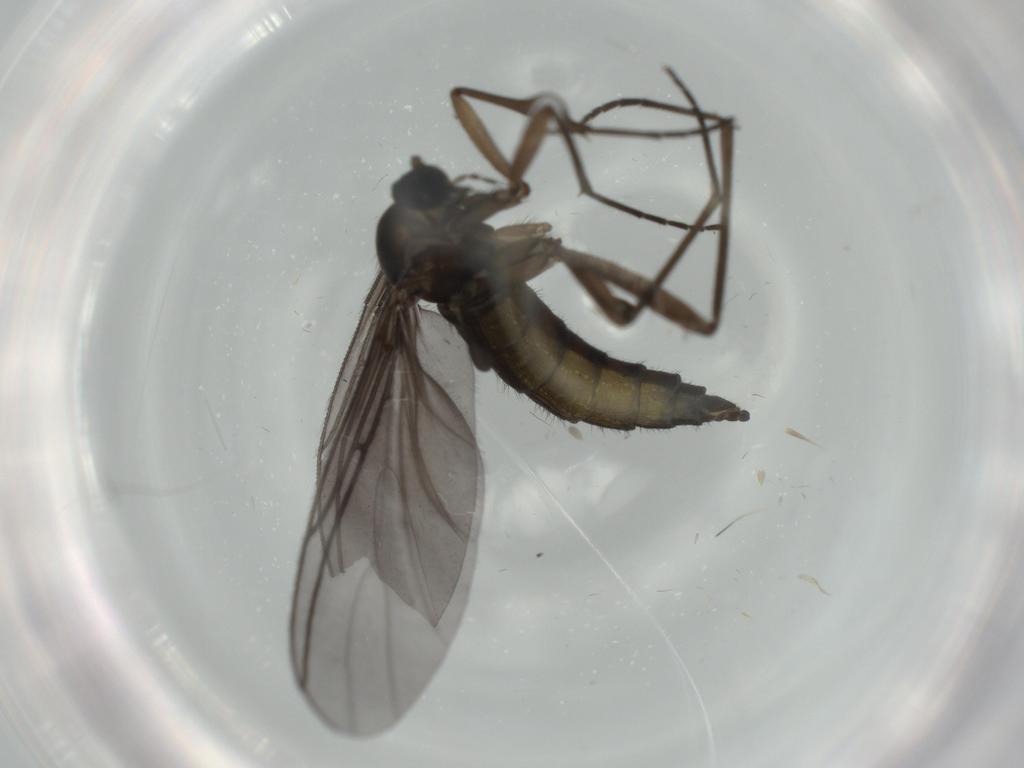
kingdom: Animalia
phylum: Arthropoda
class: Insecta
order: Diptera
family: Sciaridae
